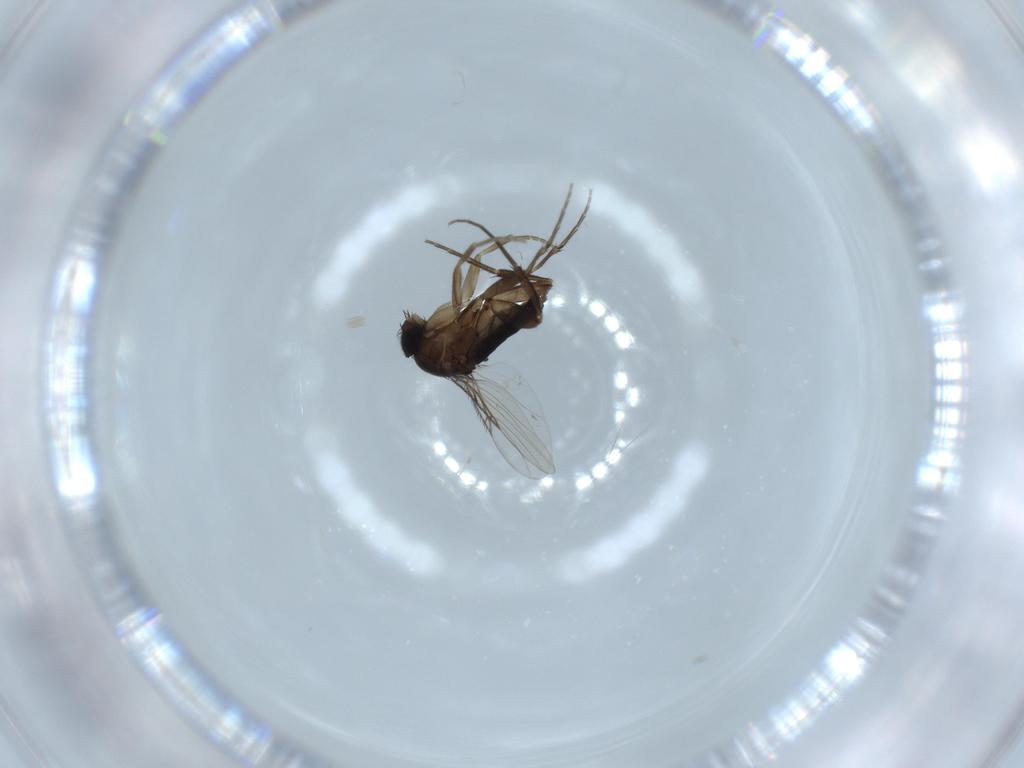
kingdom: Animalia
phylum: Arthropoda
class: Insecta
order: Diptera
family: Phoridae
